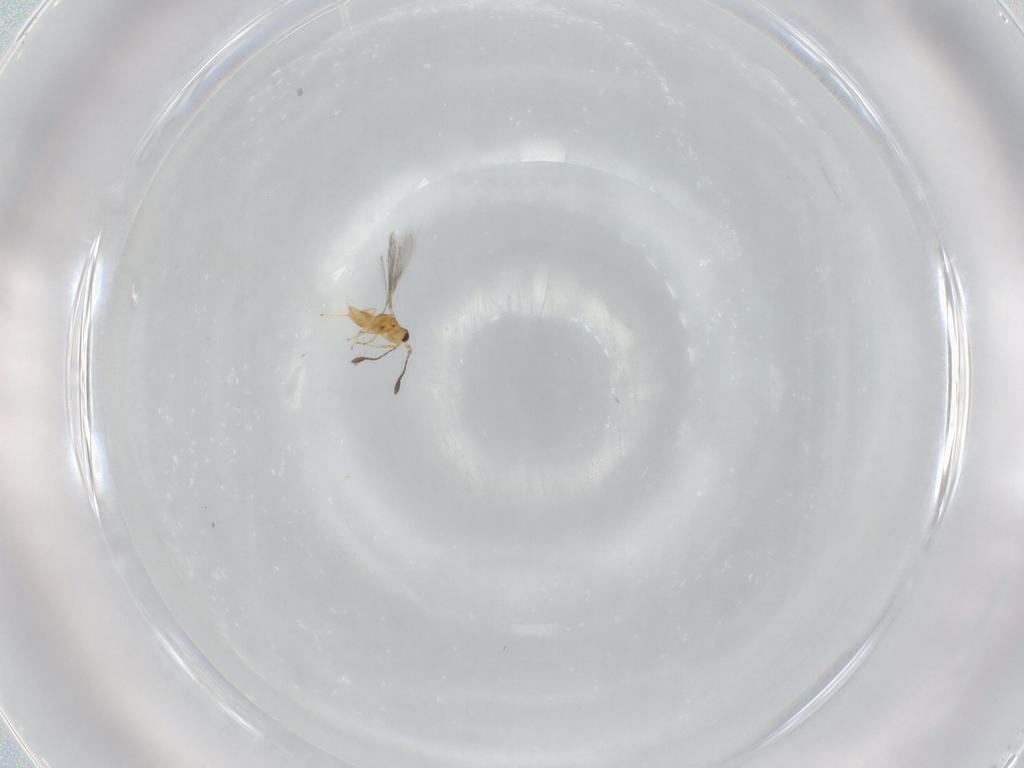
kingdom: Animalia
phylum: Arthropoda
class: Insecta
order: Hymenoptera
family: Mymaridae
